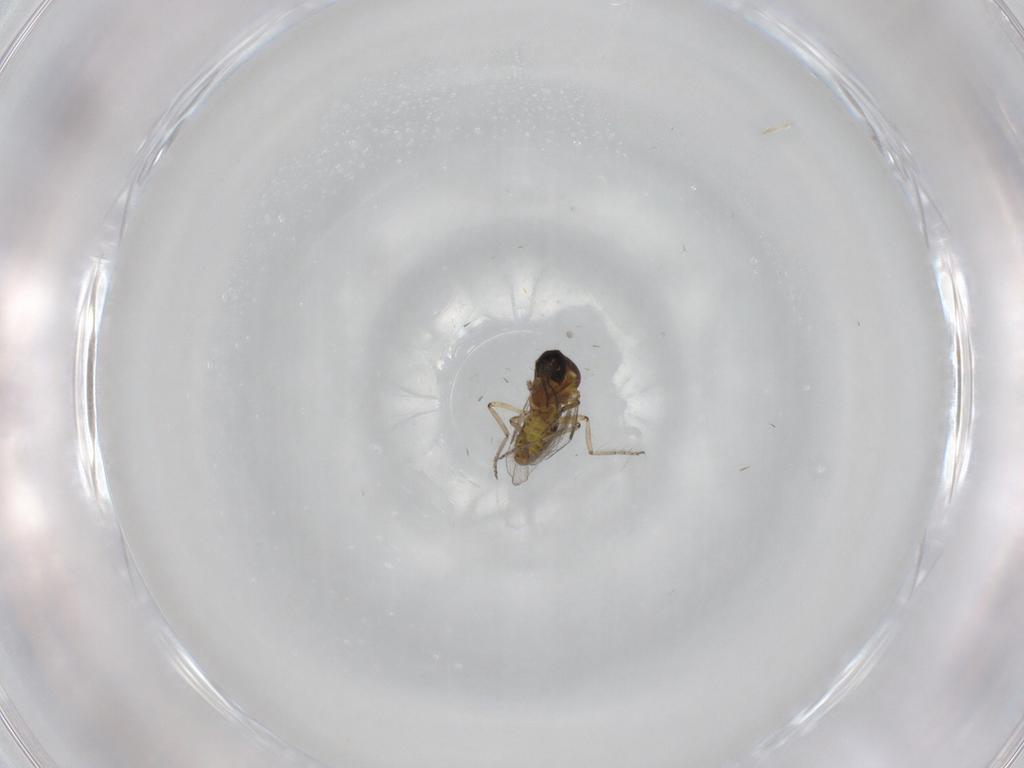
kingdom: Animalia
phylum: Arthropoda
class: Insecta
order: Diptera
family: Dolichopodidae
